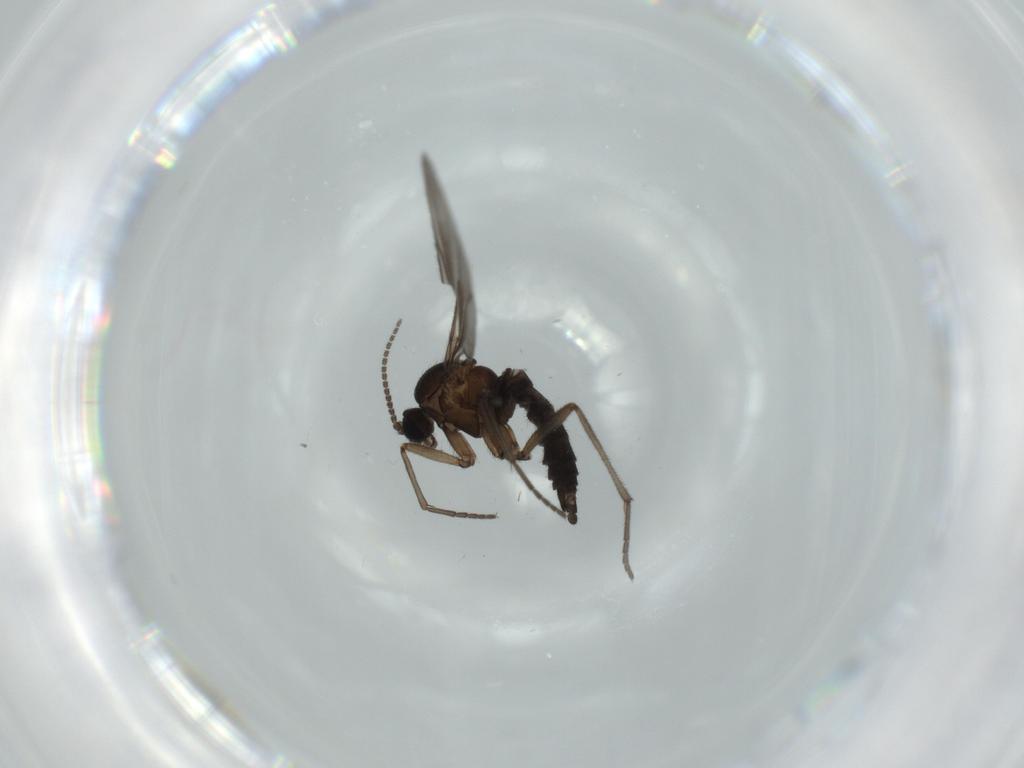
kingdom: Animalia
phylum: Arthropoda
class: Insecta
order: Diptera
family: Sciaridae
